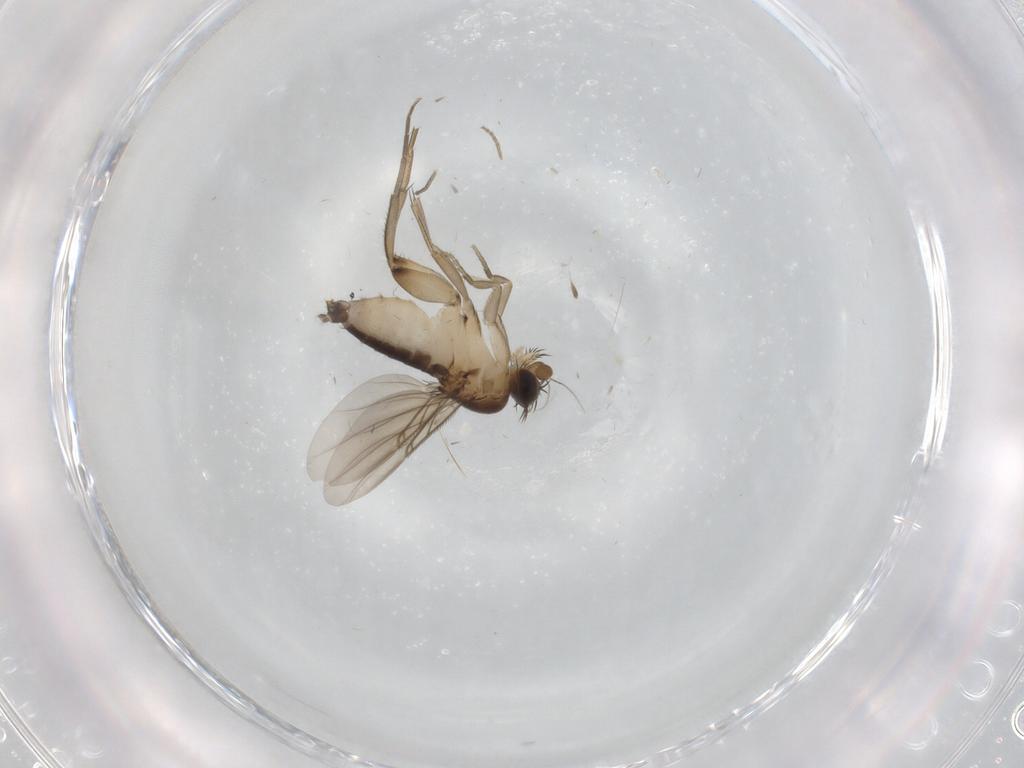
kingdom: Animalia
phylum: Arthropoda
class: Insecta
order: Diptera
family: Phoridae
